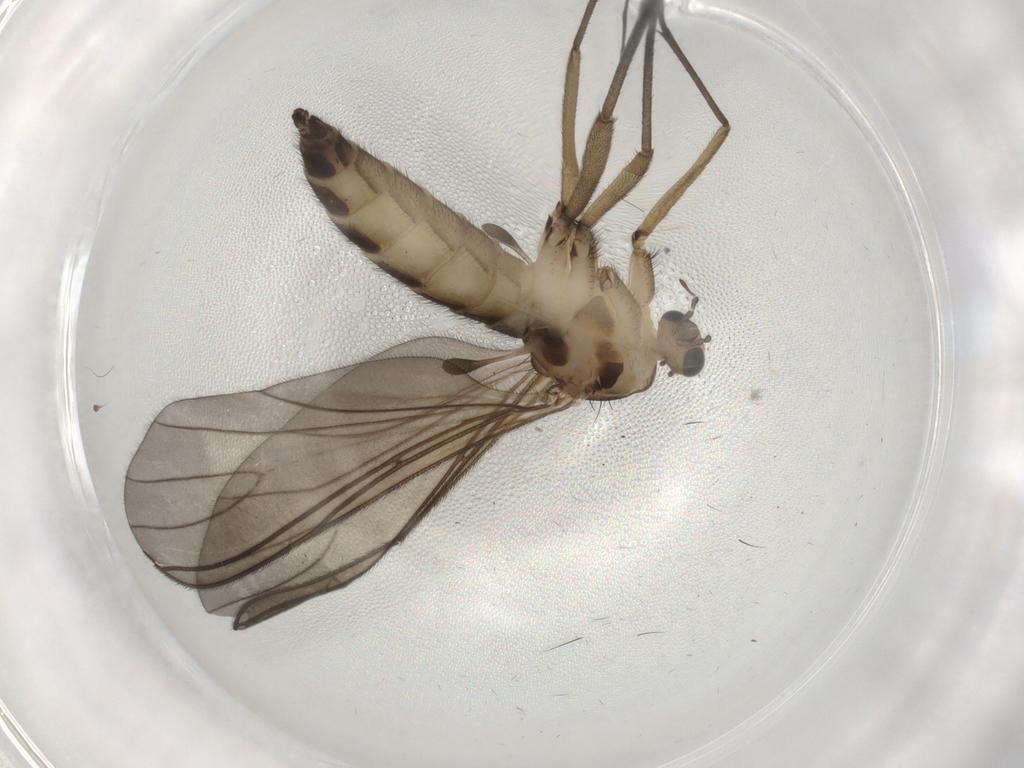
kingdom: Animalia
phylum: Arthropoda
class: Insecta
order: Diptera
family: Sciaridae
